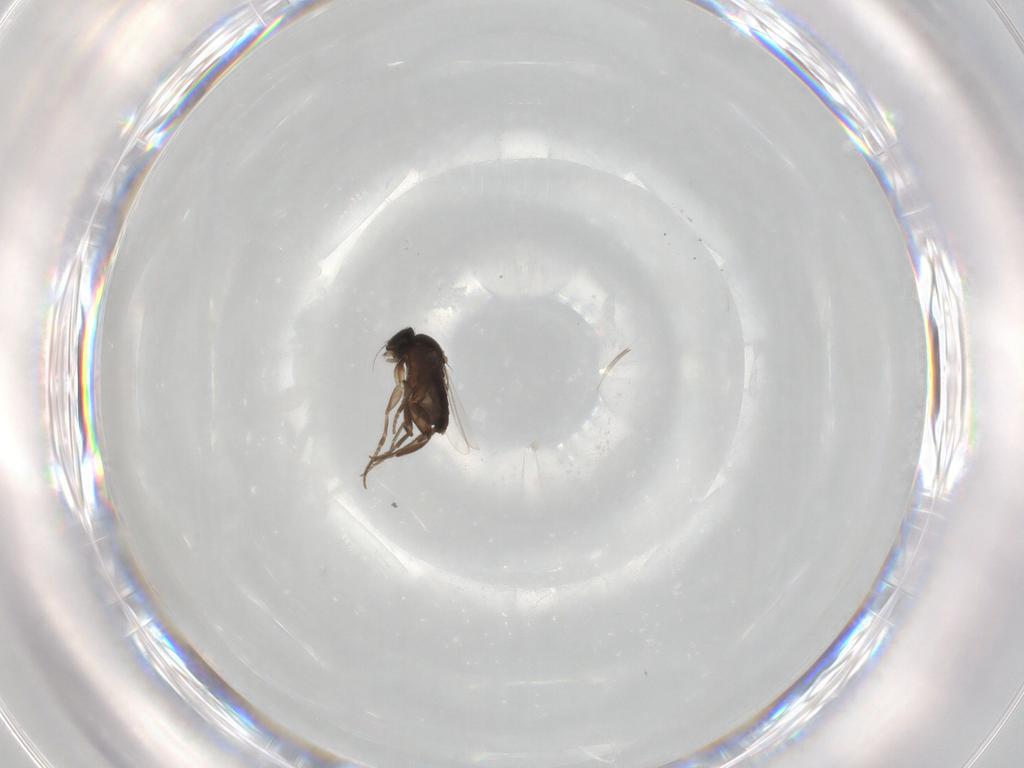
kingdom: Animalia
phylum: Arthropoda
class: Insecta
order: Diptera
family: Phoridae
